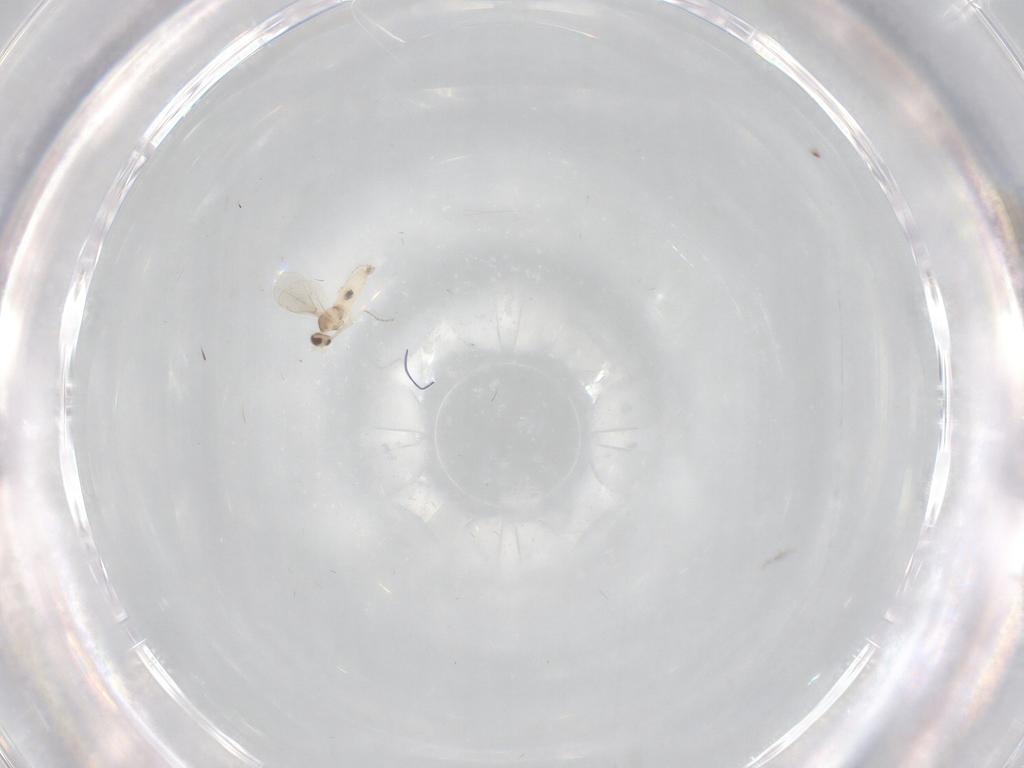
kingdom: Animalia
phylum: Arthropoda
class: Insecta
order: Diptera
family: Cecidomyiidae
